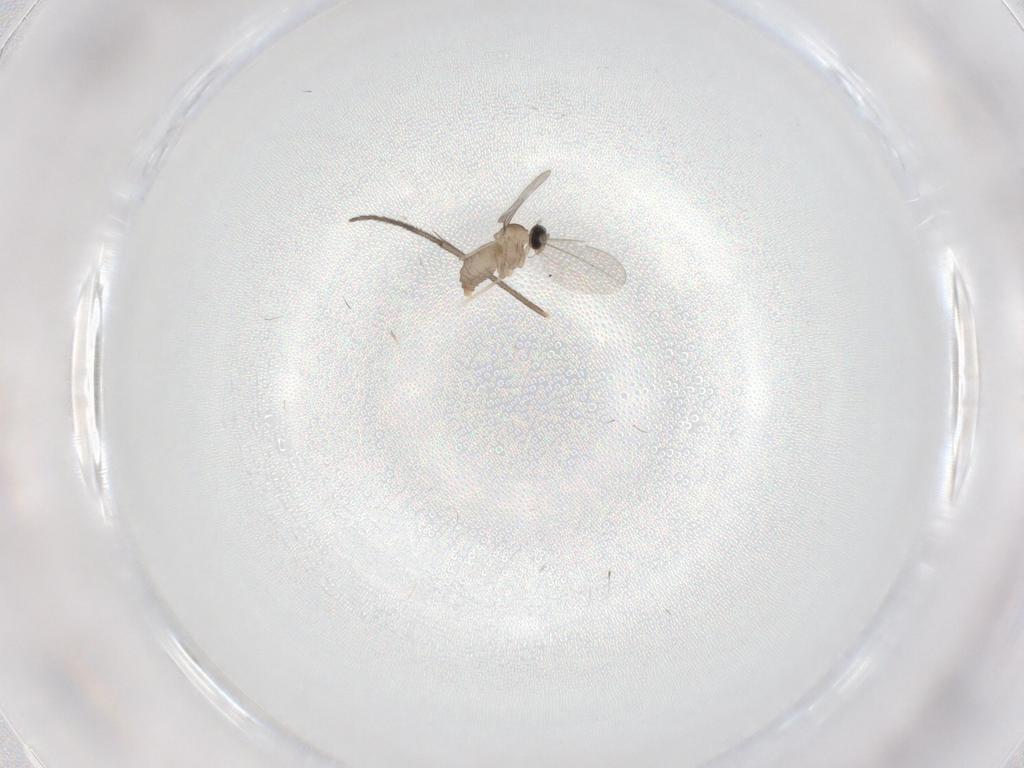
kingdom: Animalia
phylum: Arthropoda
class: Insecta
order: Diptera
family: Cecidomyiidae
